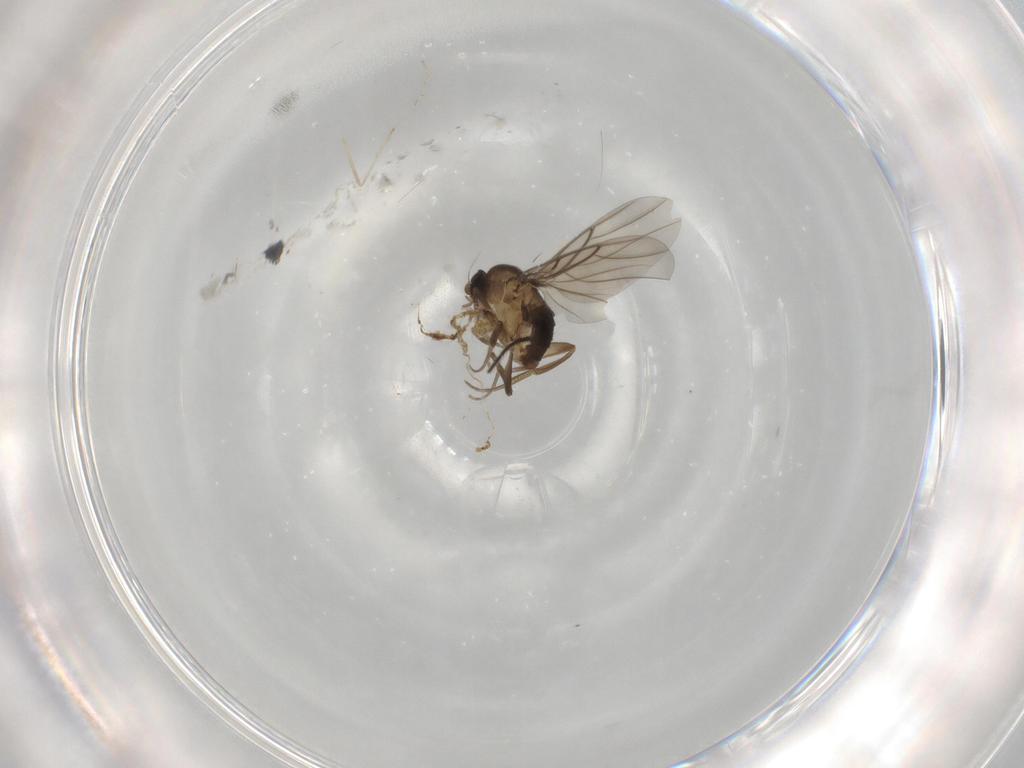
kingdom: Animalia
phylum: Arthropoda
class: Insecta
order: Diptera
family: Phoridae
